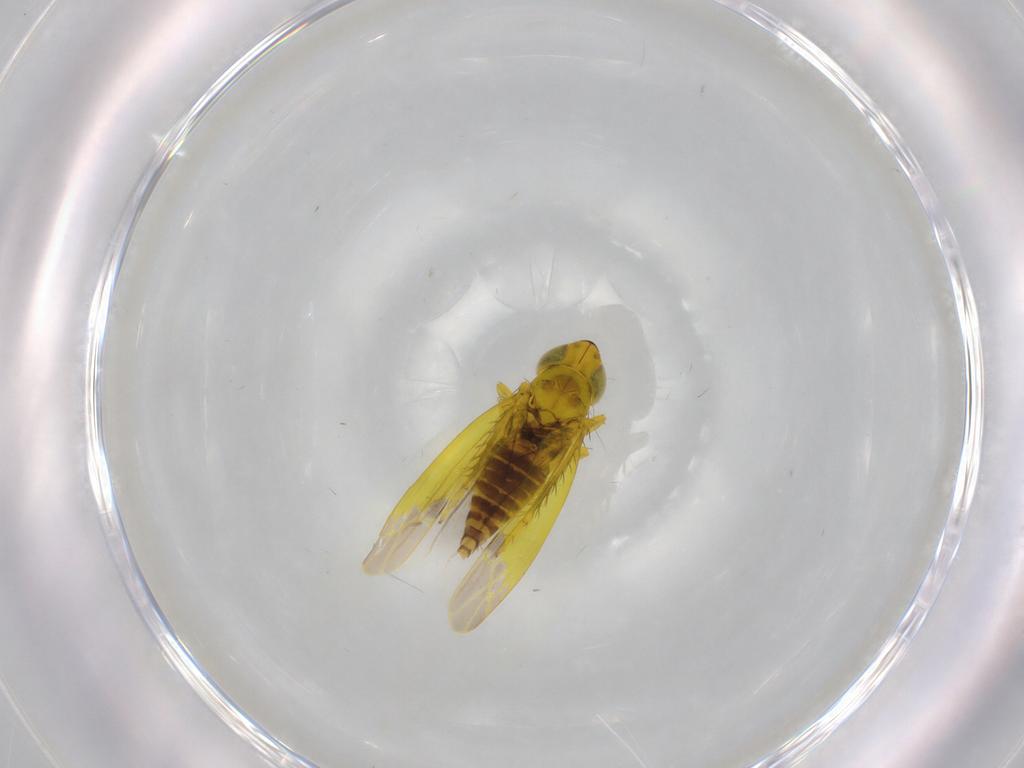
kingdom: Animalia
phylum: Arthropoda
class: Insecta
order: Hemiptera
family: Cicadellidae
